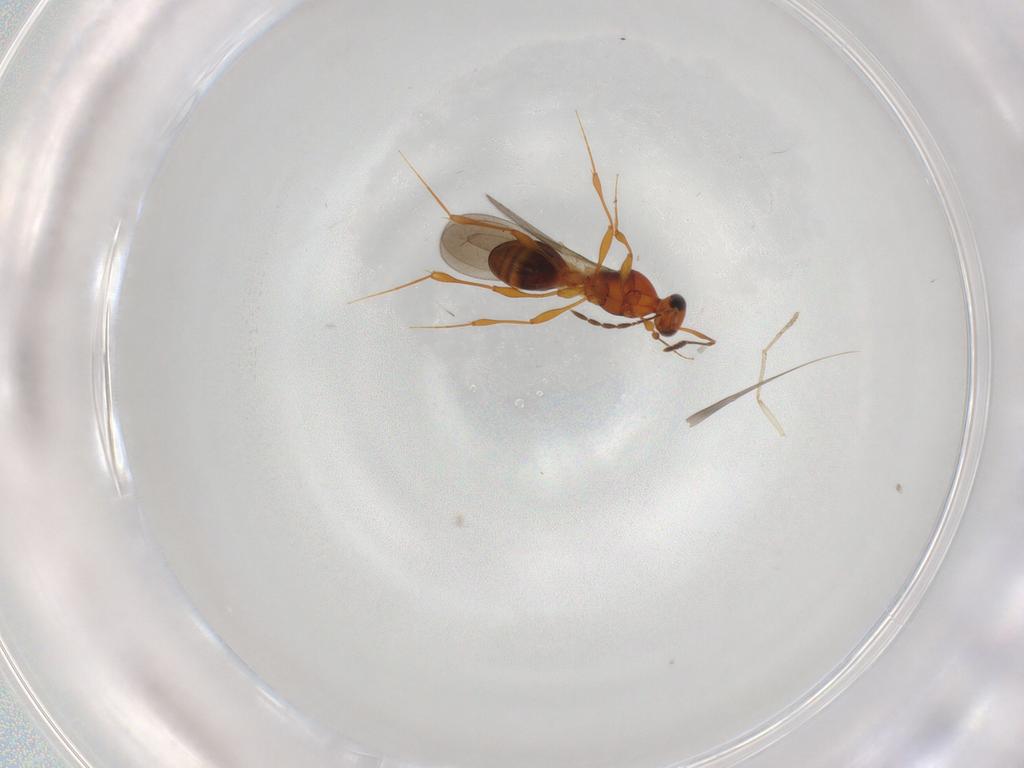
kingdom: Animalia
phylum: Arthropoda
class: Insecta
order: Hymenoptera
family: Platygastridae
